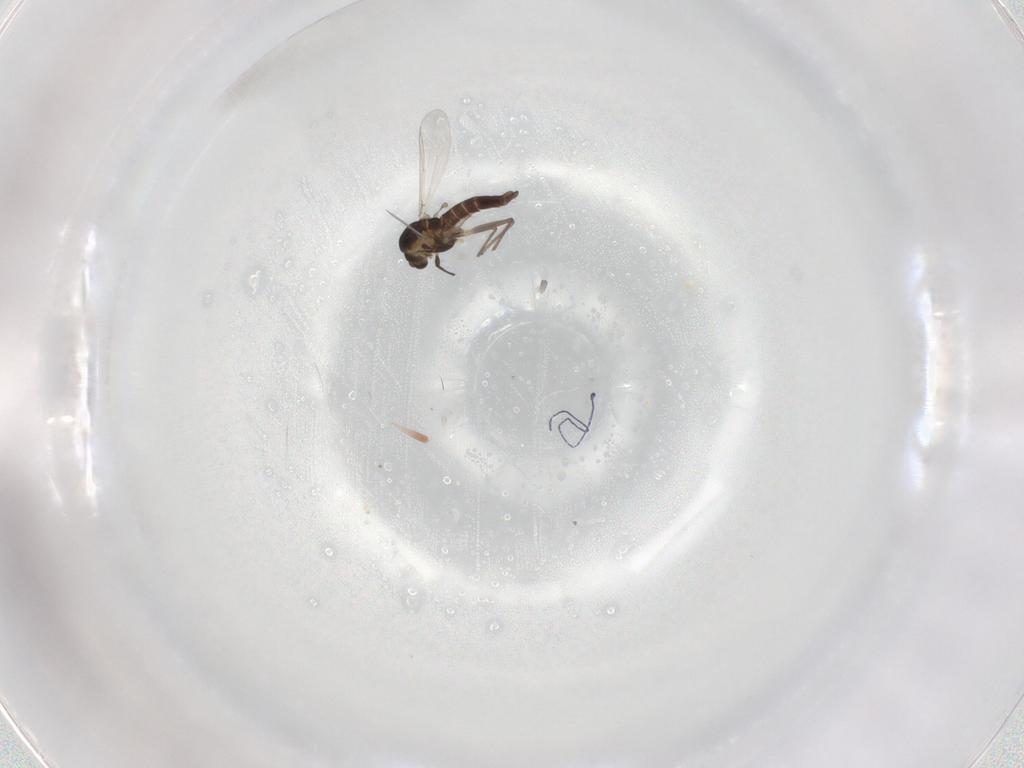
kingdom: Animalia
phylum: Arthropoda
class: Insecta
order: Diptera
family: Chironomidae
